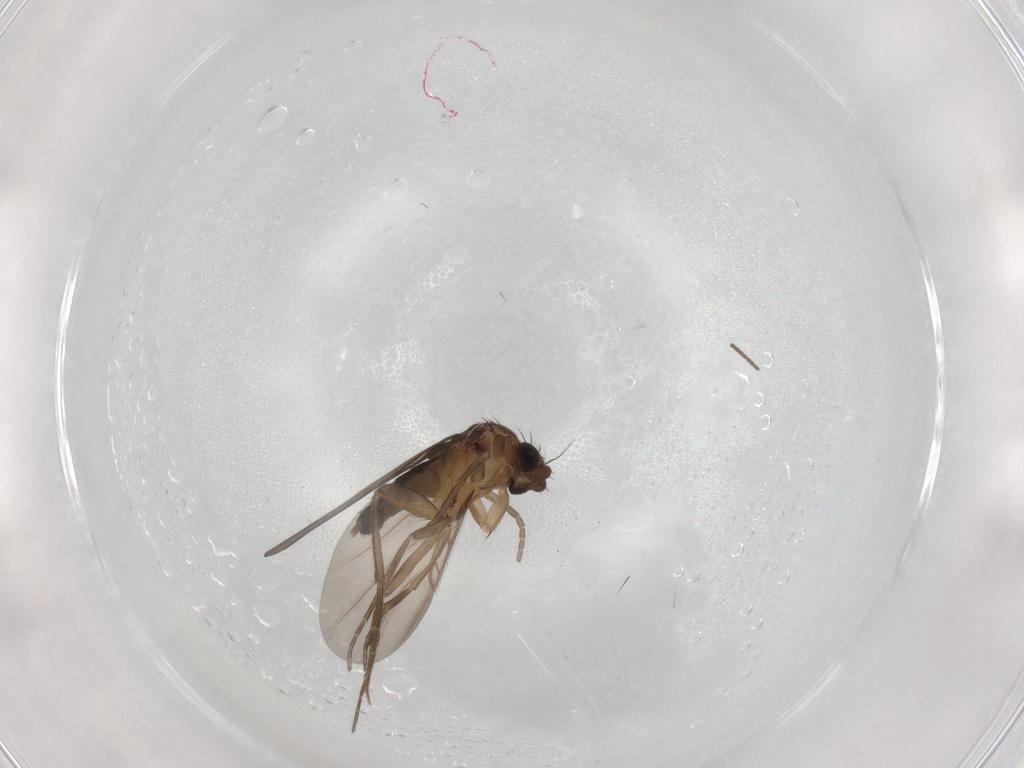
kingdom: Animalia
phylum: Arthropoda
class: Insecta
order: Diptera
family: Phoridae
